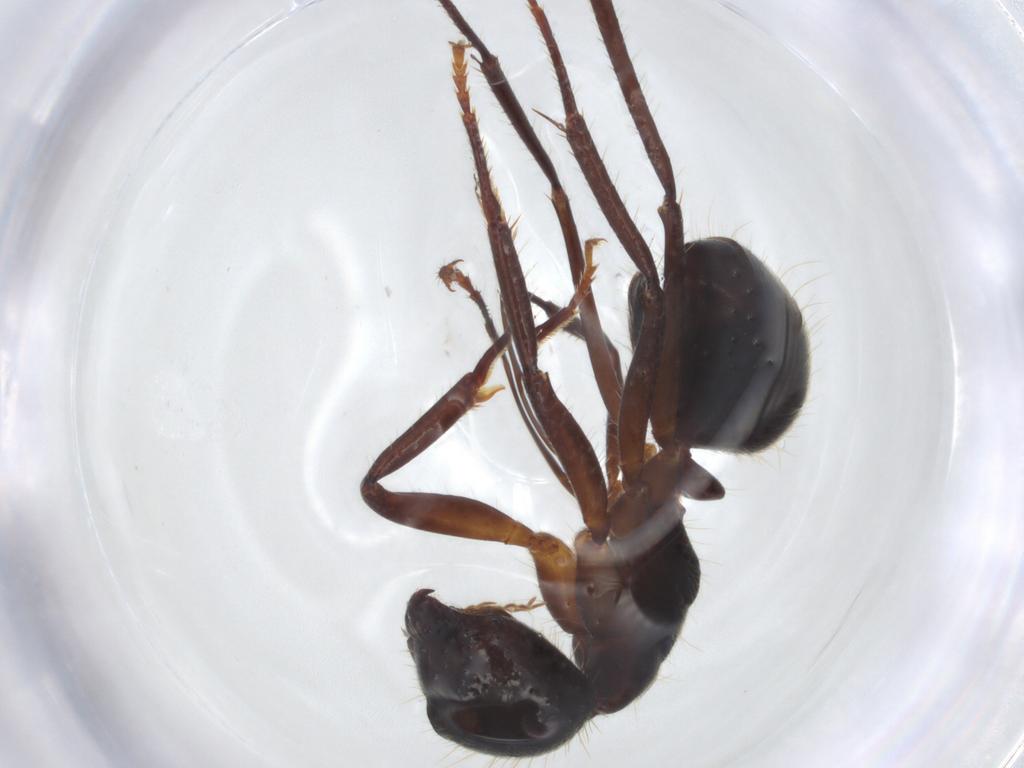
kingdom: Animalia
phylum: Arthropoda
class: Insecta
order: Hymenoptera
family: Formicidae
